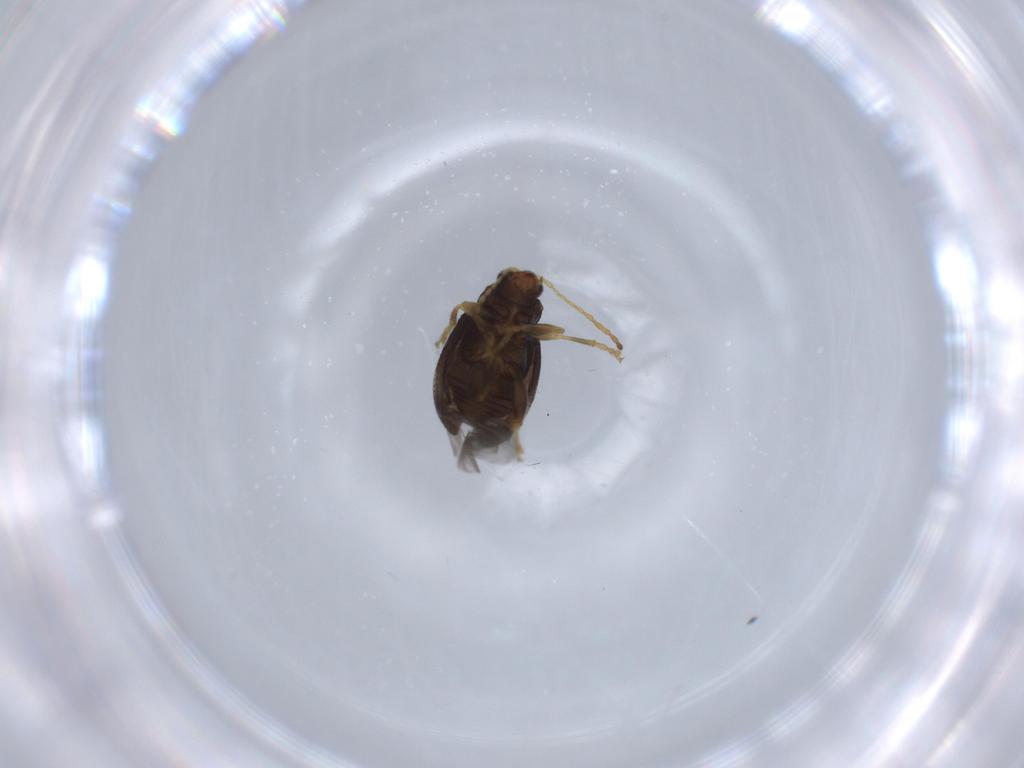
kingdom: Animalia
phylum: Arthropoda
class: Insecta
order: Coleoptera
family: Chrysomelidae
